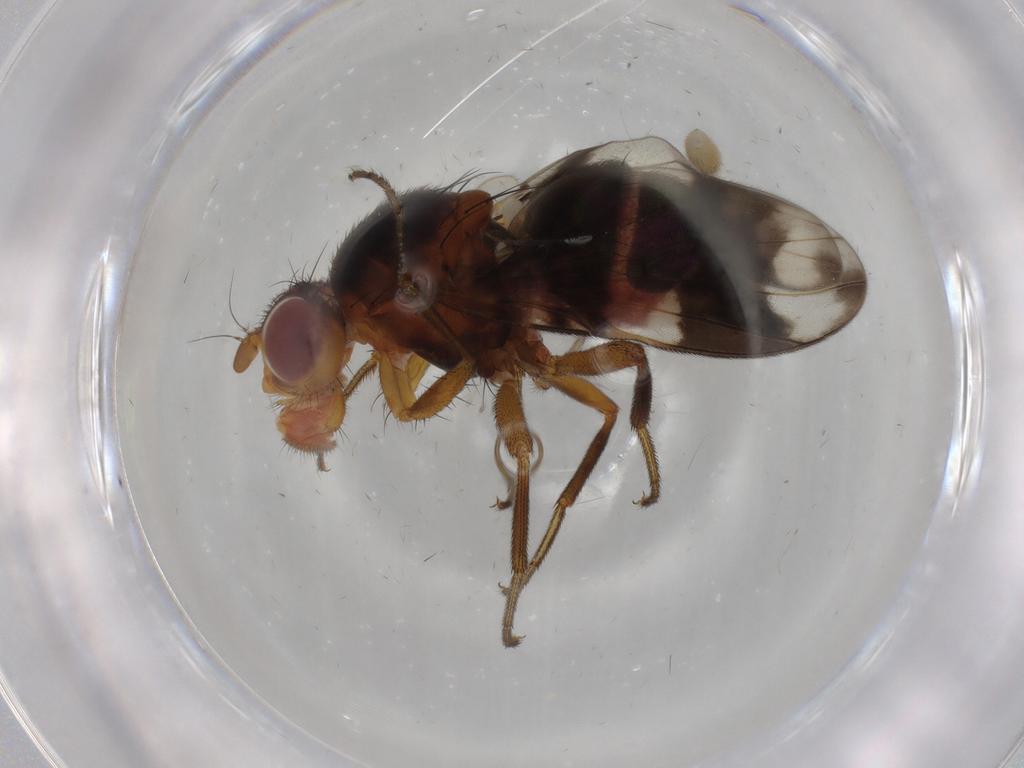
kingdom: Animalia
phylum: Arthropoda
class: Insecta
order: Diptera
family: Richardiidae
